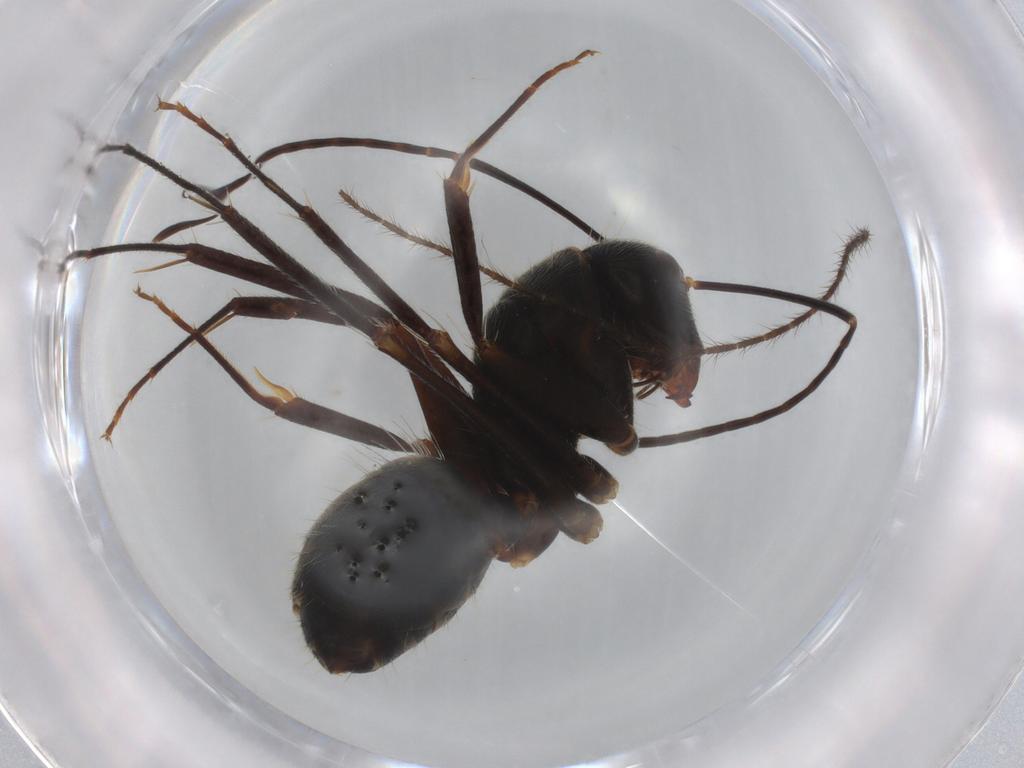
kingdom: Animalia
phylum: Arthropoda
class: Insecta
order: Hymenoptera
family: Formicidae
